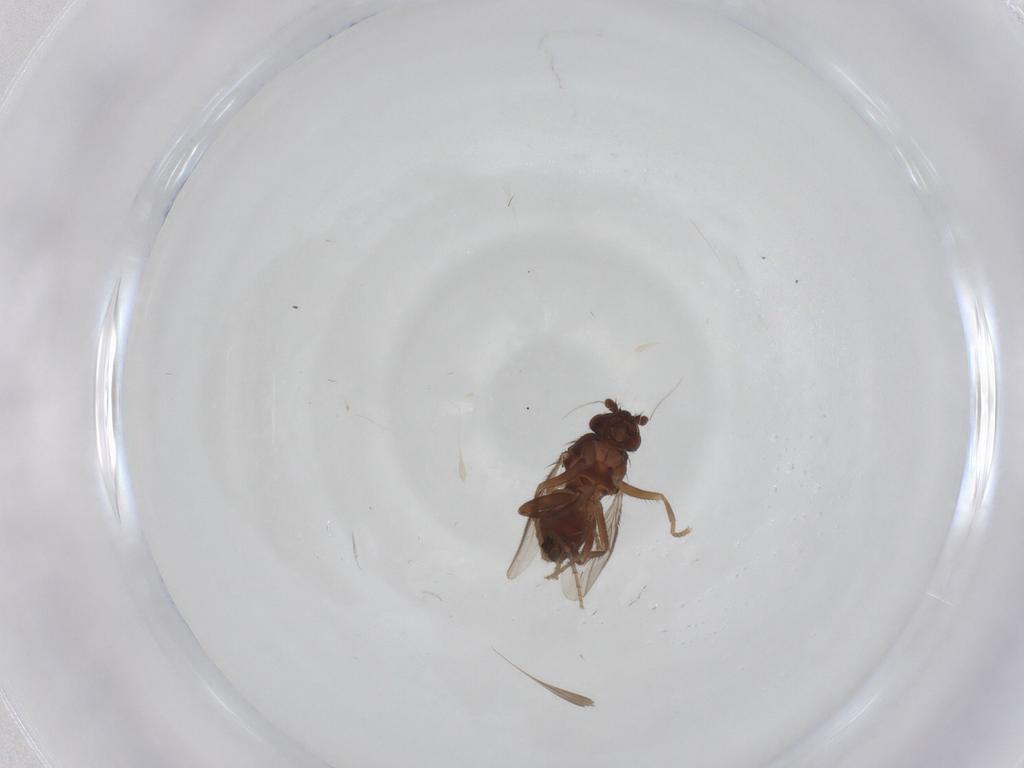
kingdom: Animalia
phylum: Arthropoda
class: Insecta
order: Diptera
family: Cecidomyiidae
